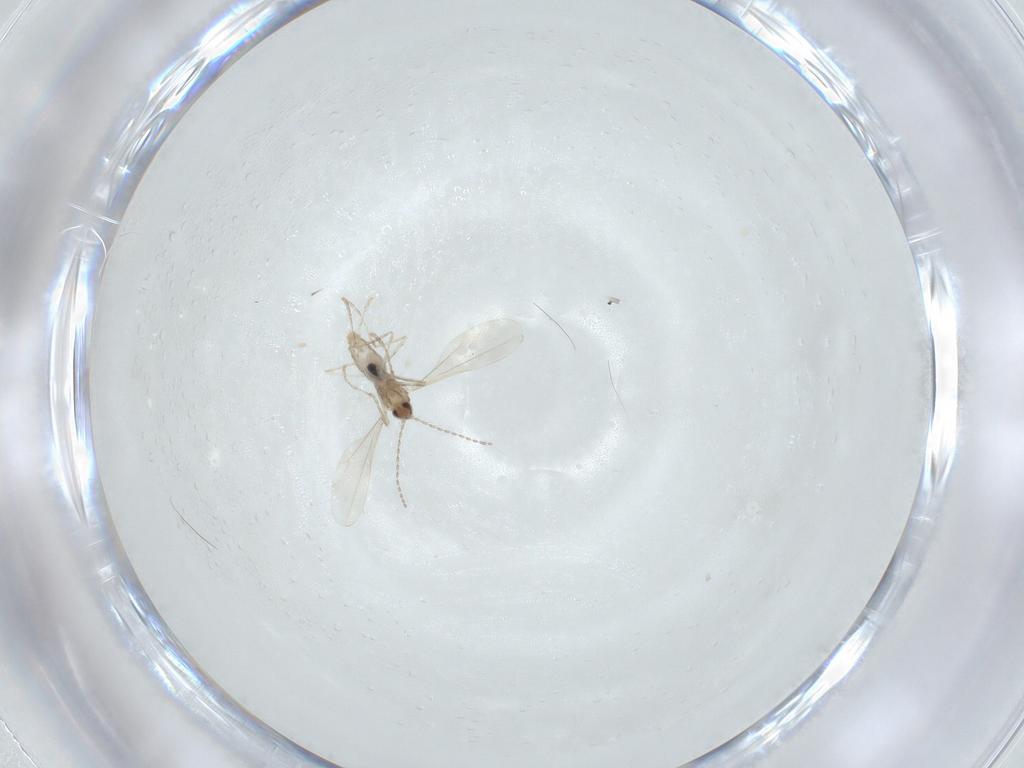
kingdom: Animalia
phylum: Arthropoda
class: Insecta
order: Diptera
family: Cecidomyiidae
